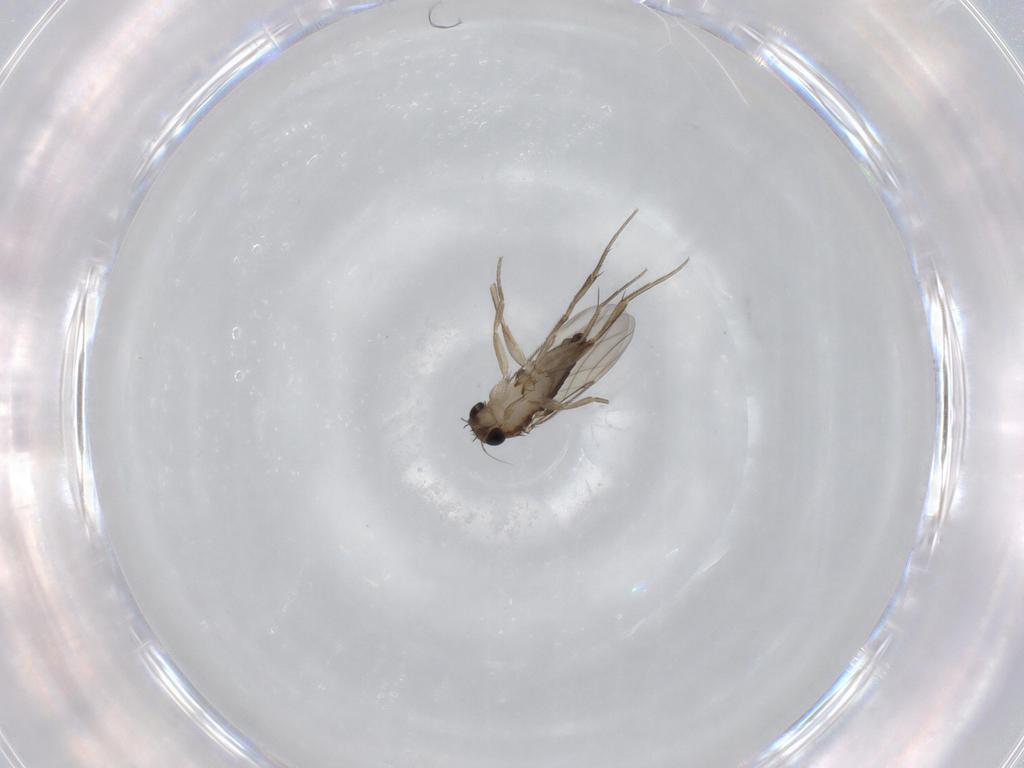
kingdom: Animalia
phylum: Arthropoda
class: Insecta
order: Diptera
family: Phoridae
